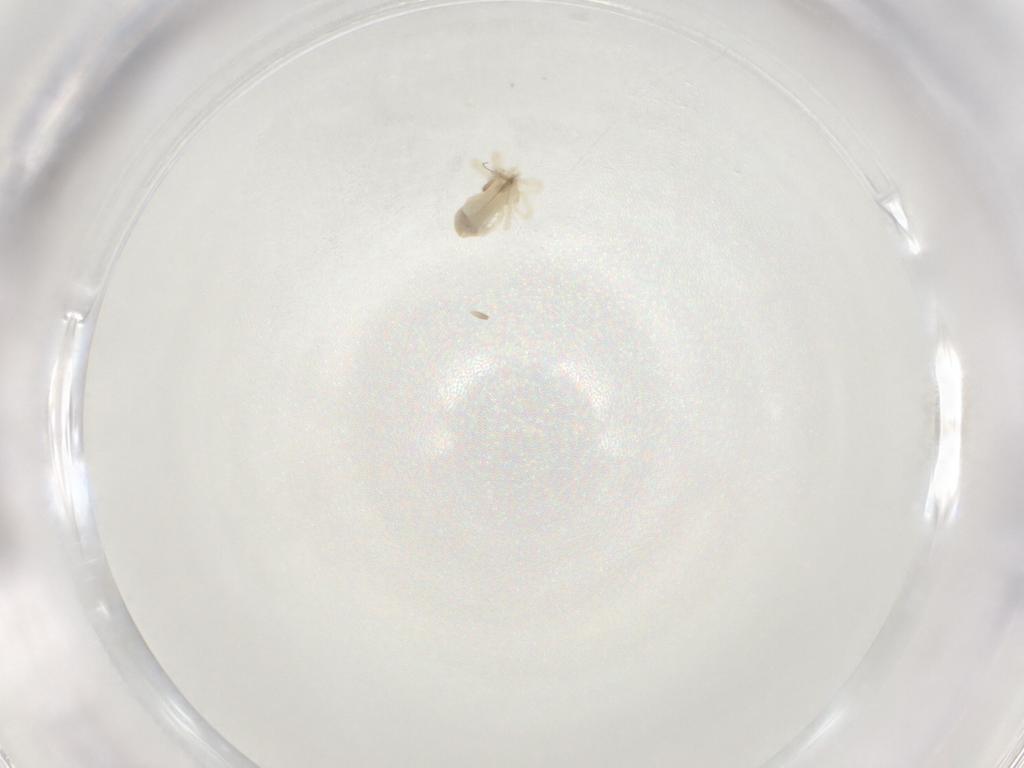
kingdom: Animalia
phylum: Arthropoda
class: Arachnida
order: Trombidiformes
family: Anystidae
